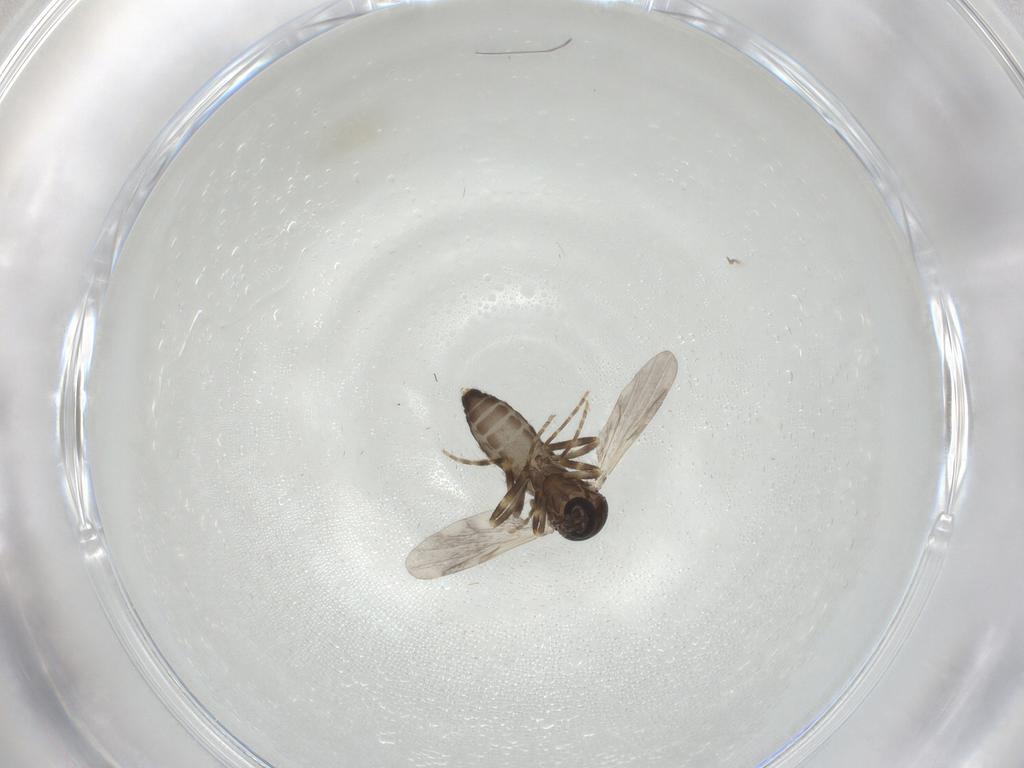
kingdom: Animalia
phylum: Arthropoda
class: Insecta
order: Diptera
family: Ceratopogonidae
